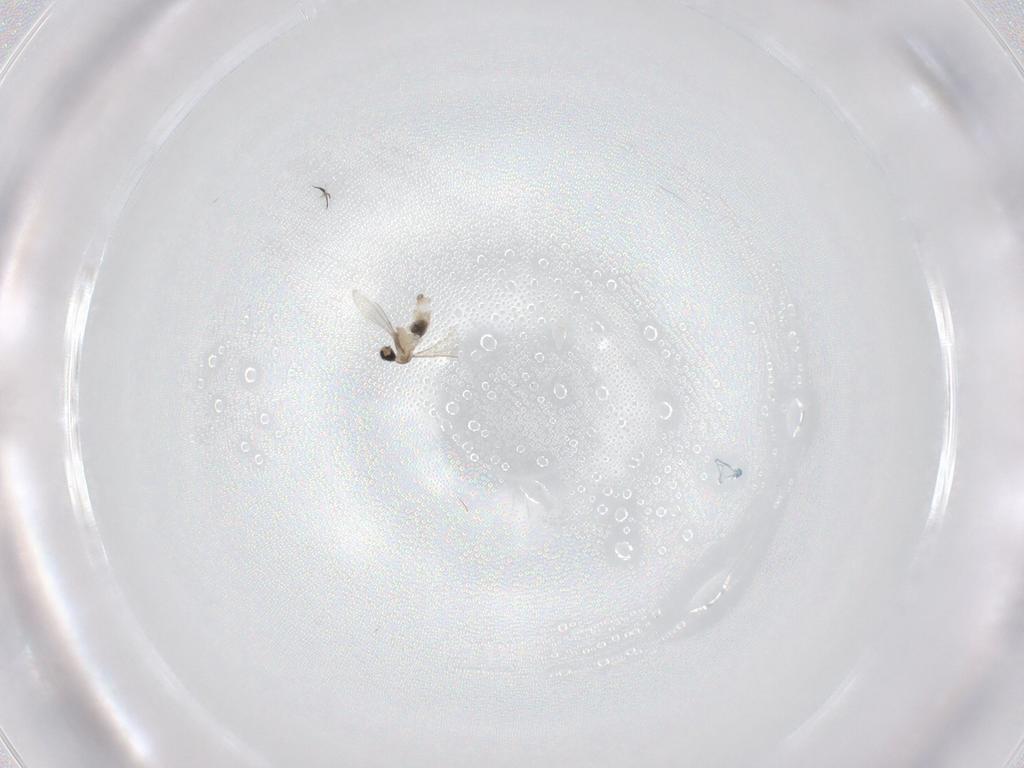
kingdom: Animalia
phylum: Arthropoda
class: Insecta
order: Diptera
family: Cecidomyiidae
